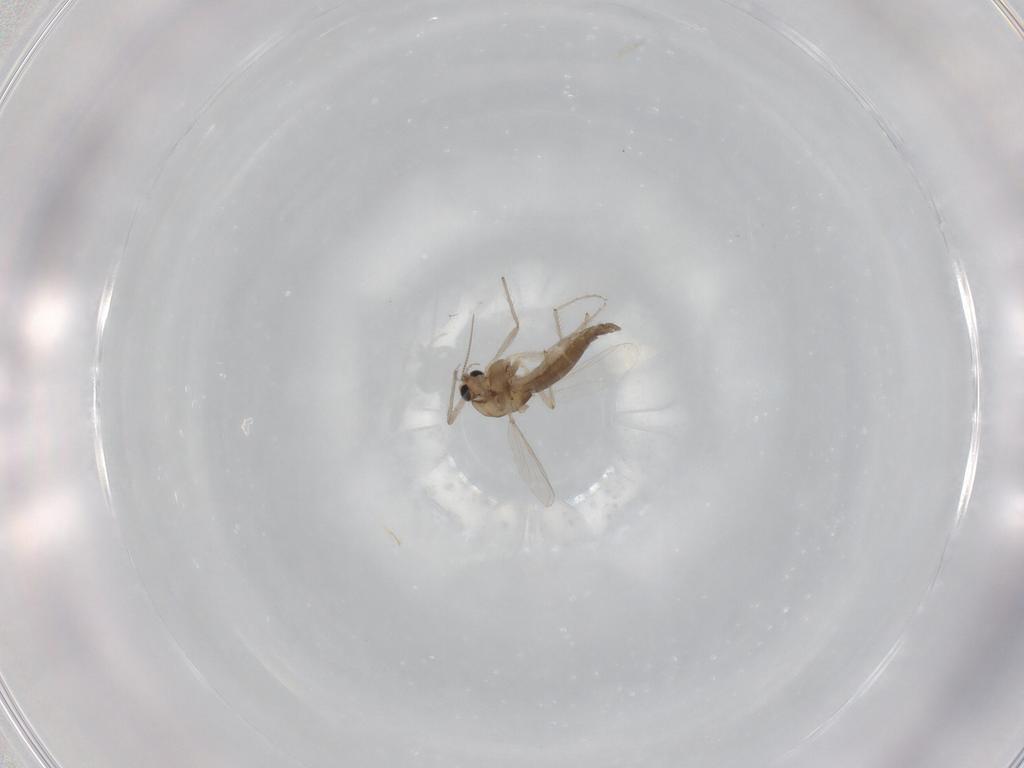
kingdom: Animalia
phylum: Arthropoda
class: Insecta
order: Diptera
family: Chironomidae
